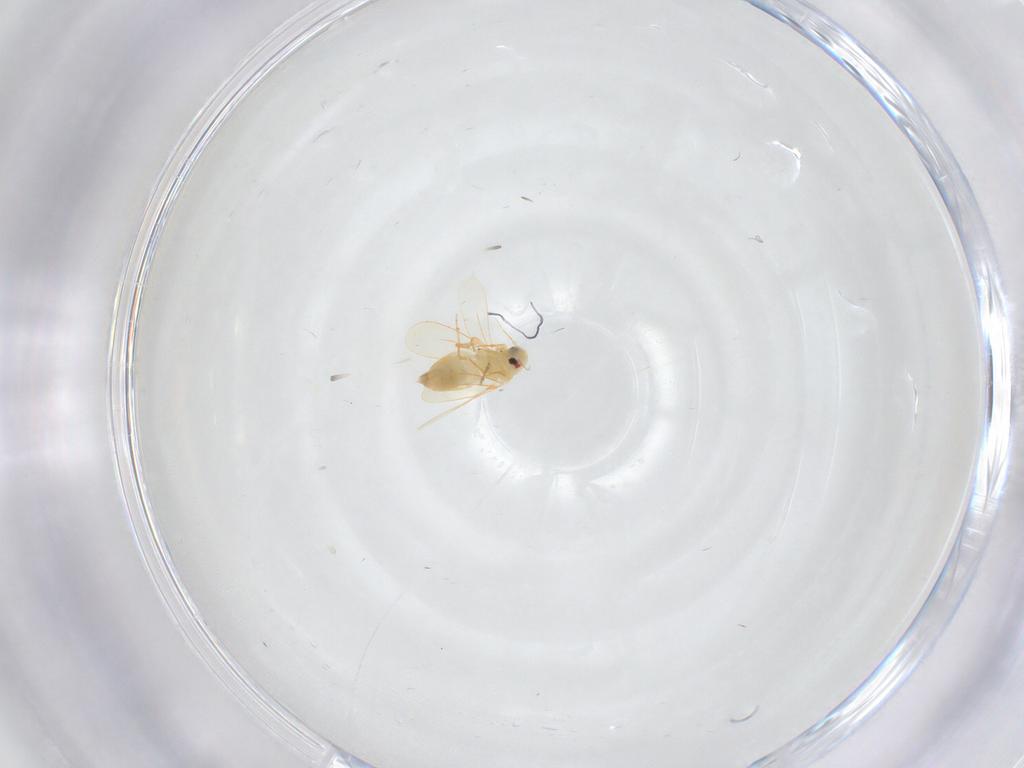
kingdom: Animalia
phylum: Arthropoda
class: Insecta
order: Hemiptera
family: Aleyrodidae
